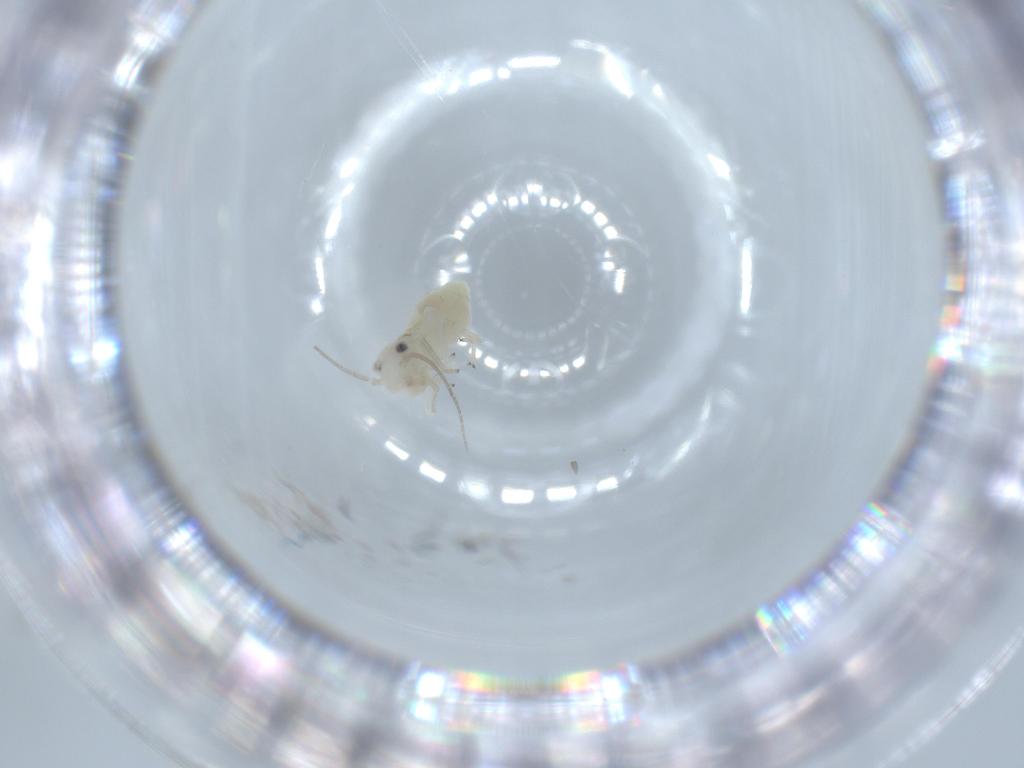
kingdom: Animalia
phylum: Arthropoda
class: Insecta
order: Psocodea
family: Caeciliusidae
